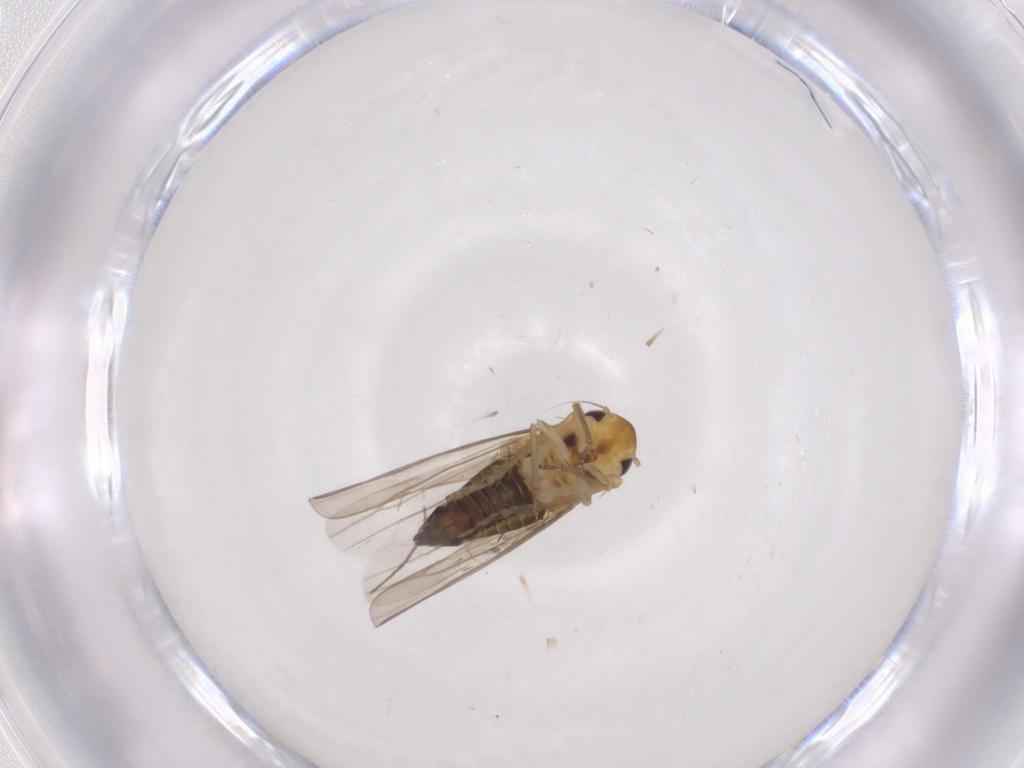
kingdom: Animalia
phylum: Arthropoda
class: Insecta
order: Hemiptera
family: Cicadellidae
